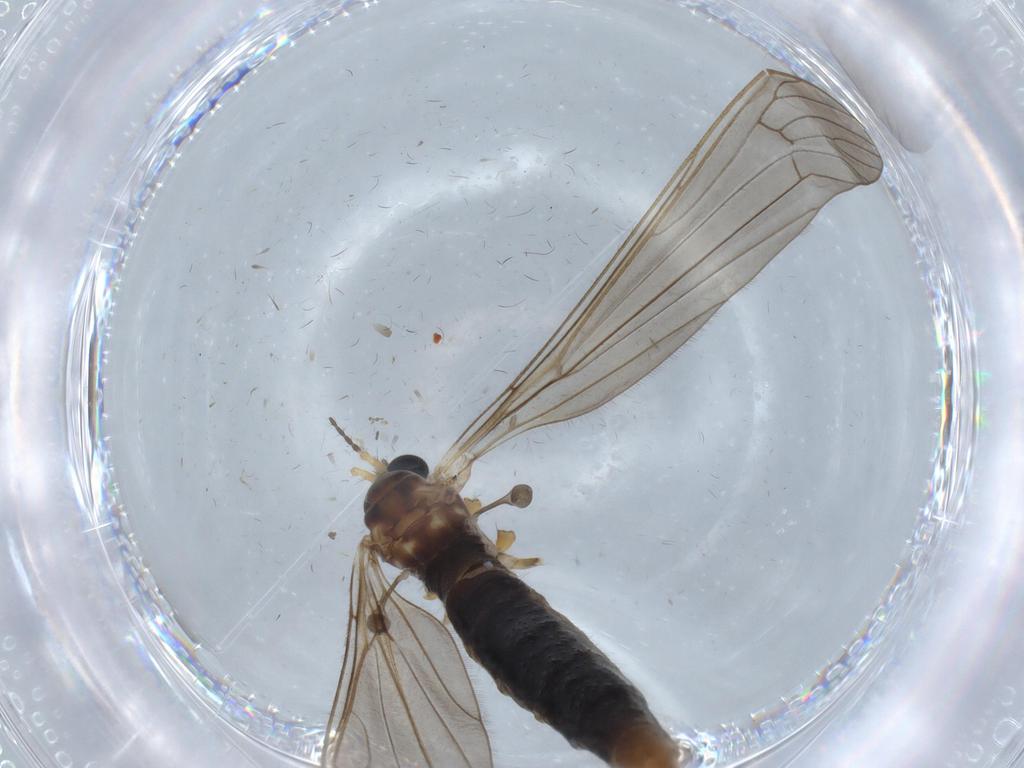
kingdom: Animalia
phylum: Arthropoda
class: Insecta
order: Diptera
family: Limoniidae
